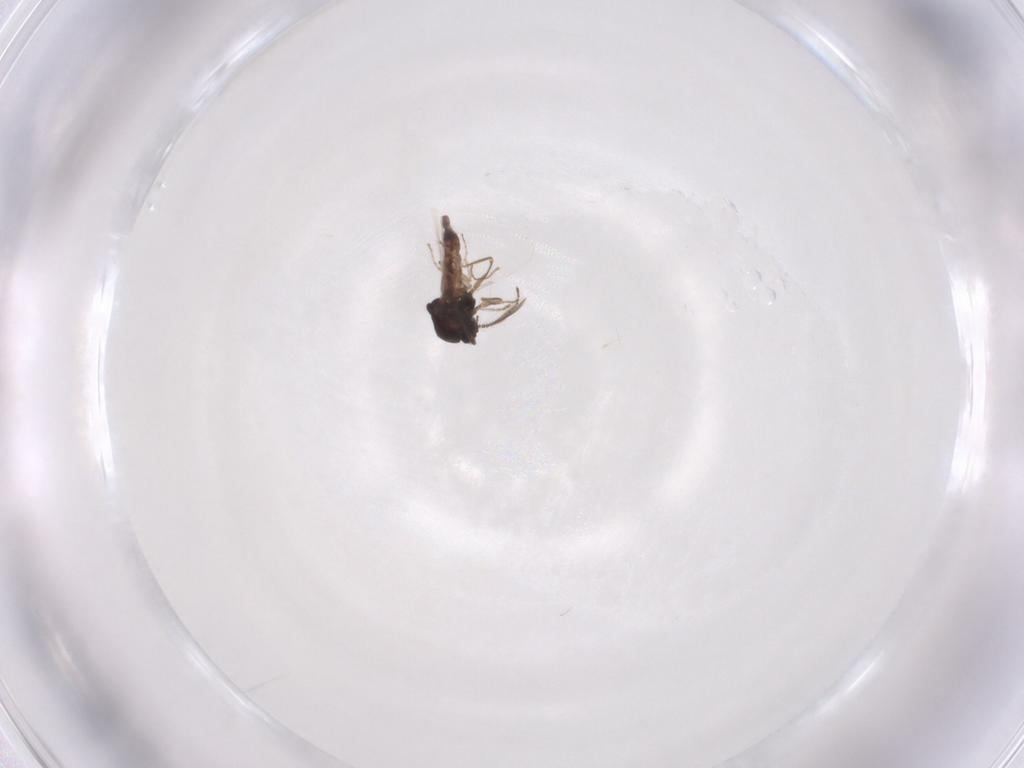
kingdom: Animalia
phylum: Arthropoda
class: Insecta
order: Diptera
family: Ceratopogonidae
